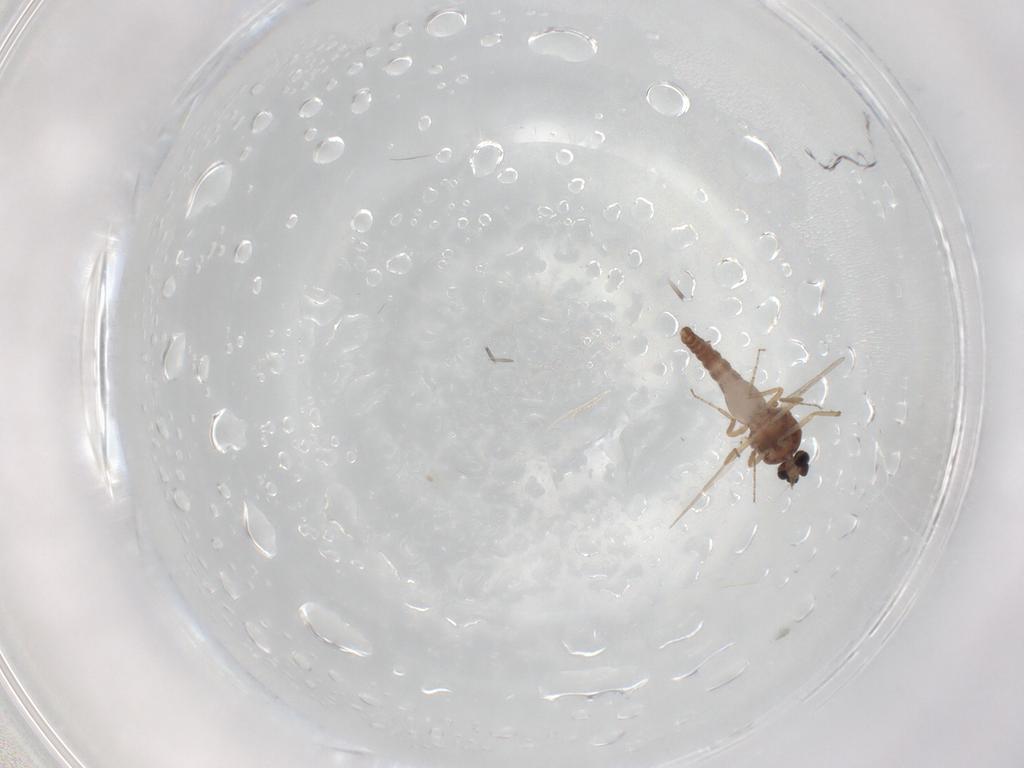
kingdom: Animalia
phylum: Arthropoda
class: Insecta
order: Diptera
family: Ceratopogonidae
